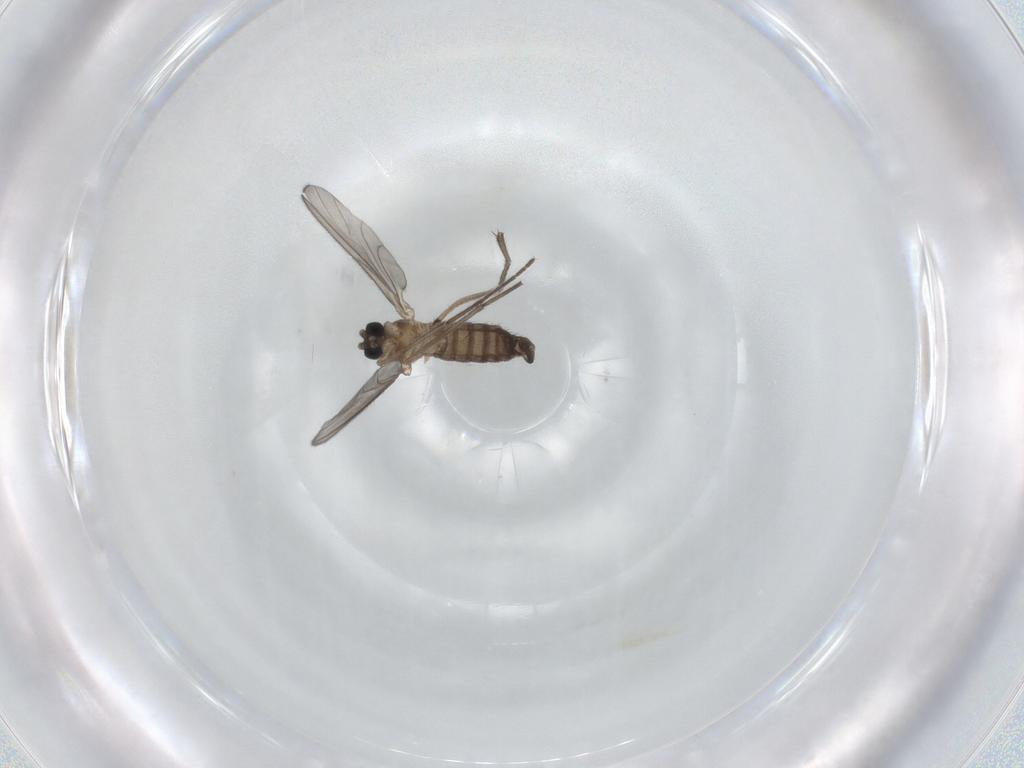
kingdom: Animalia
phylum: Arthropoda
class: Insecta
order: Diptera
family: Sciaridae
